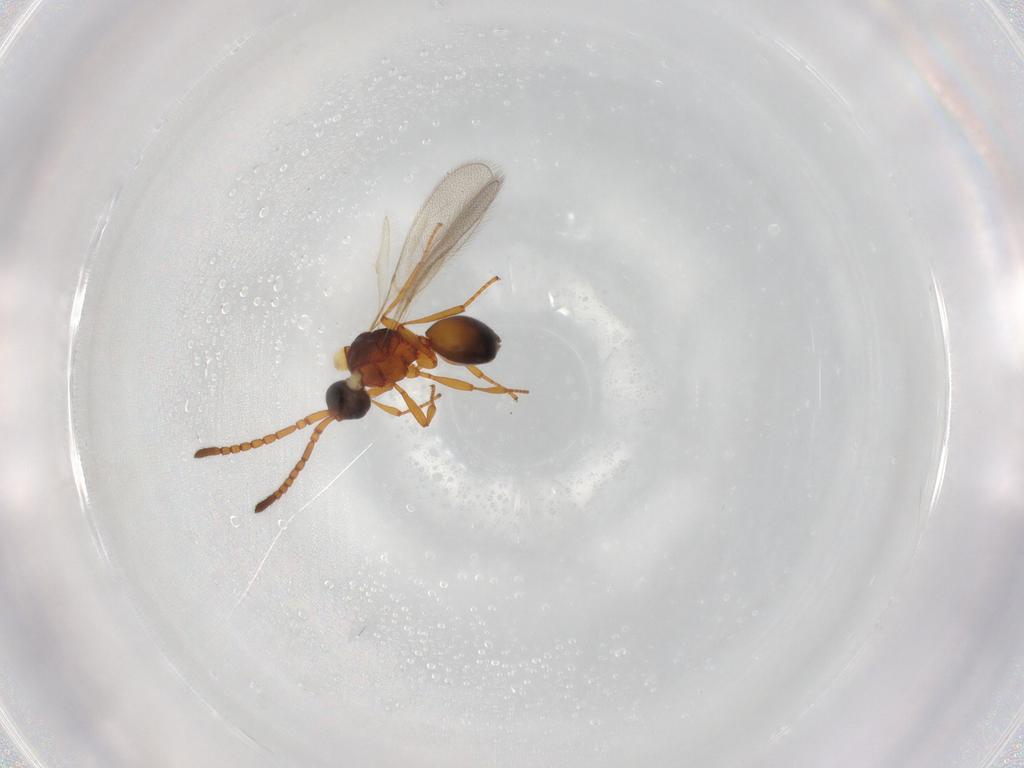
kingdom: Animalia
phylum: Arthropoda
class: Insecta
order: Hymenoptera
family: Diapriidae
